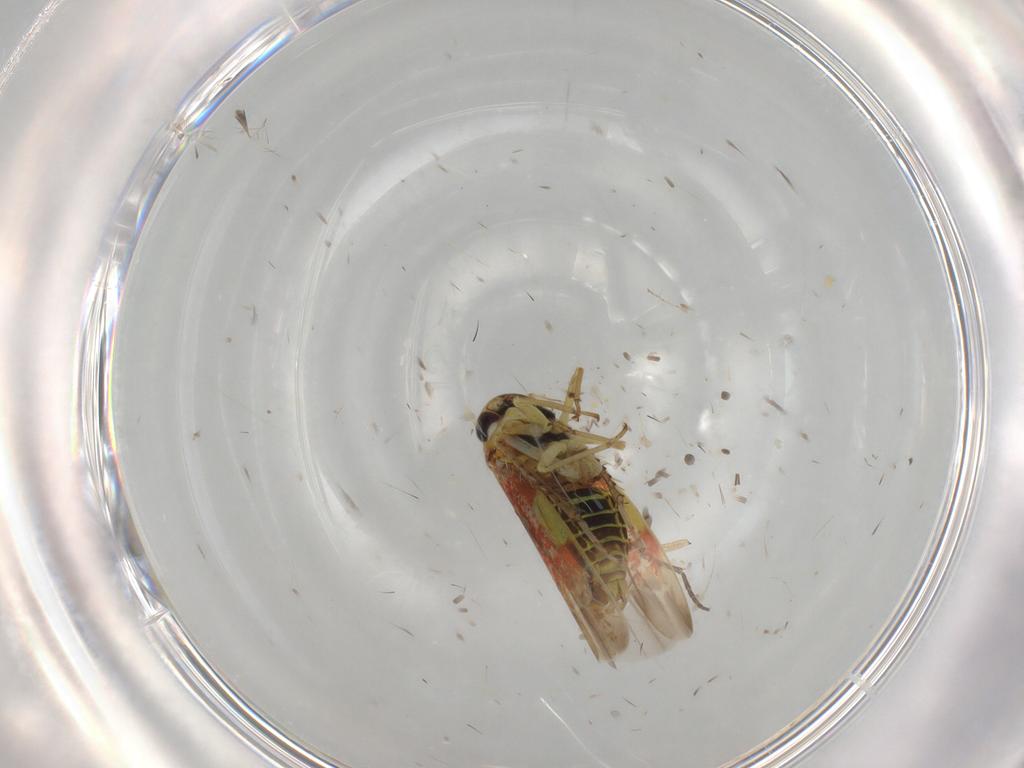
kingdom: Animalia
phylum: Arthropoda
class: Insecta
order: Hemiptera
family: Cicadellidae
